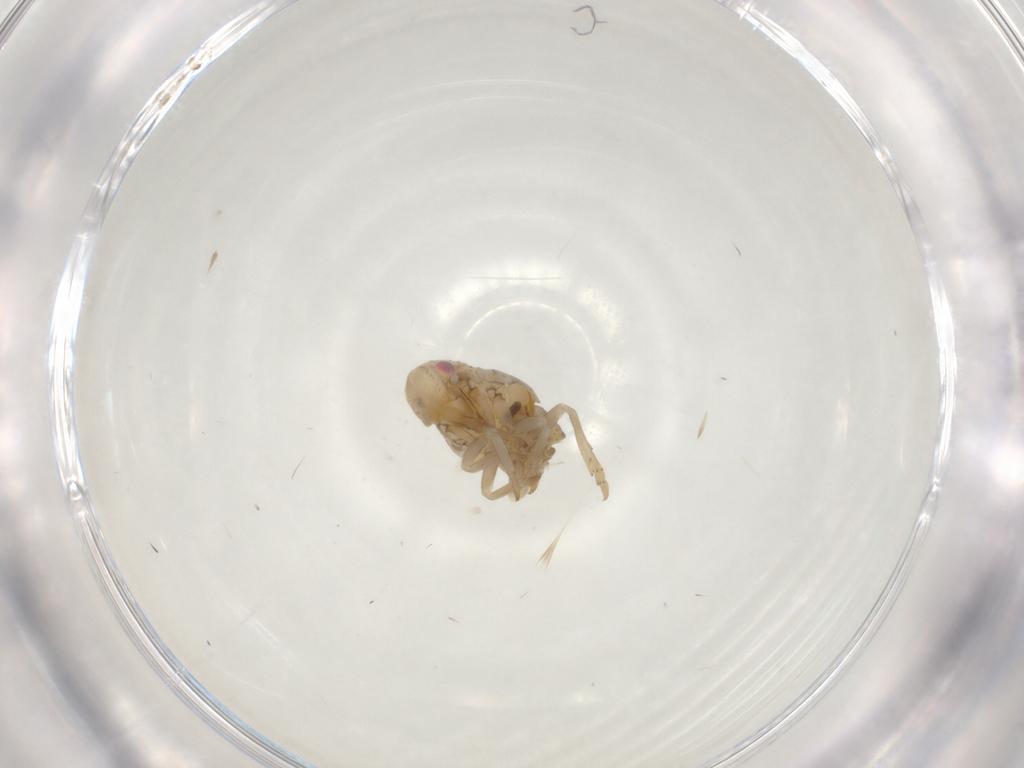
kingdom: Animalia
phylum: Arthropoda
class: Insecta
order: Hemiptera
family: Flatidae
